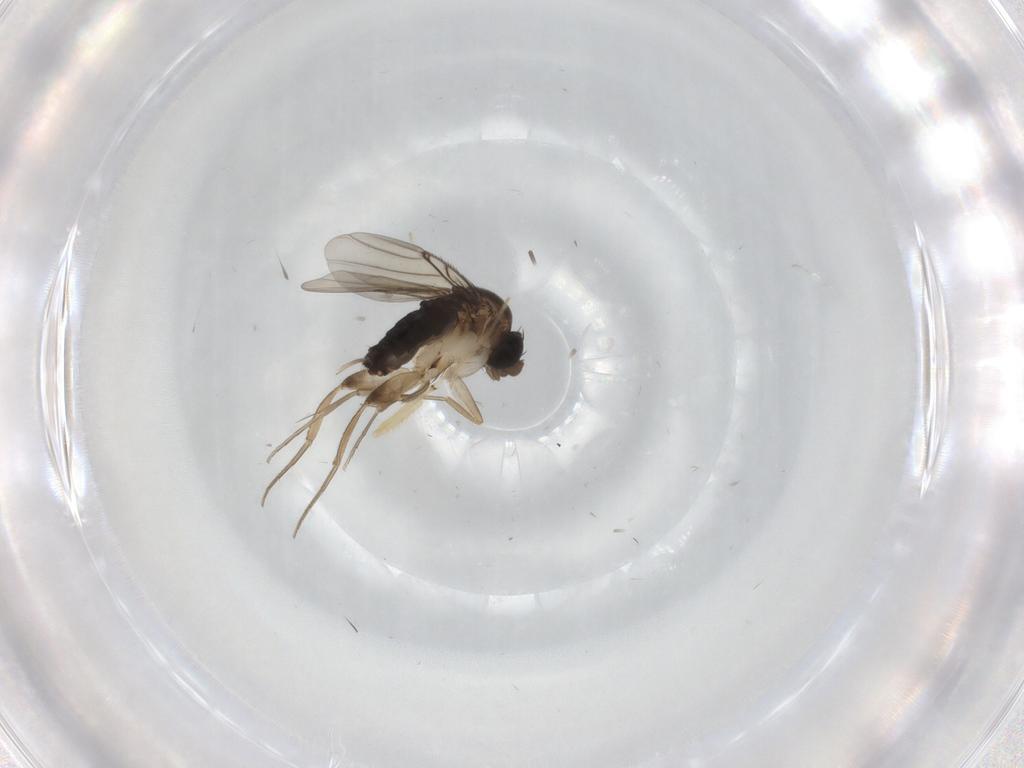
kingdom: Animalia
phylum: Arthropoda
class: Insecta
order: Diptera
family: Phoridae
